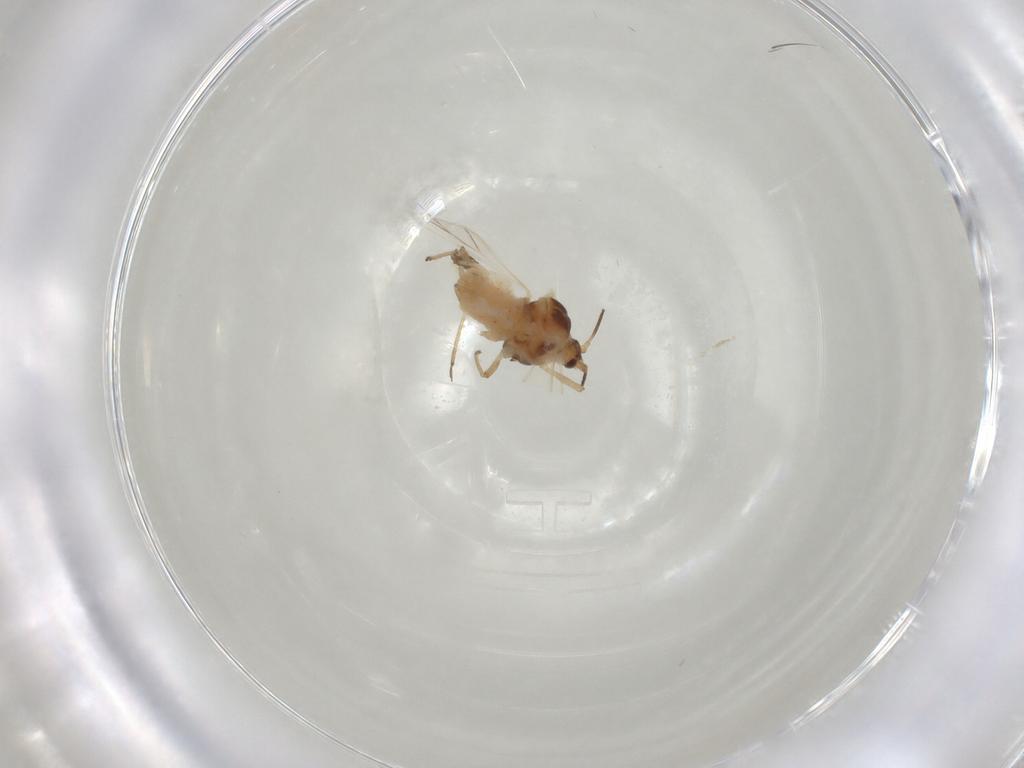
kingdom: Animalia
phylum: Arthropoda
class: Insecta
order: Hemiptera
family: Aphididae
